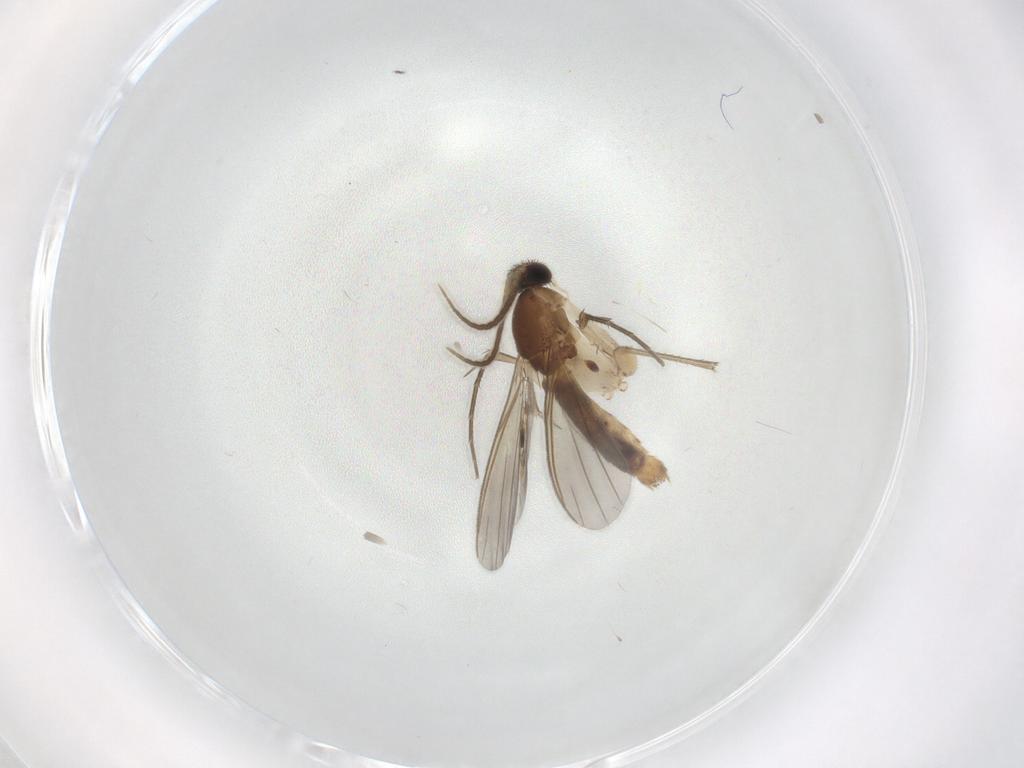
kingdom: Animalia
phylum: Arthropoda
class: Insecta
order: Diptera
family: Mycetophilidae
